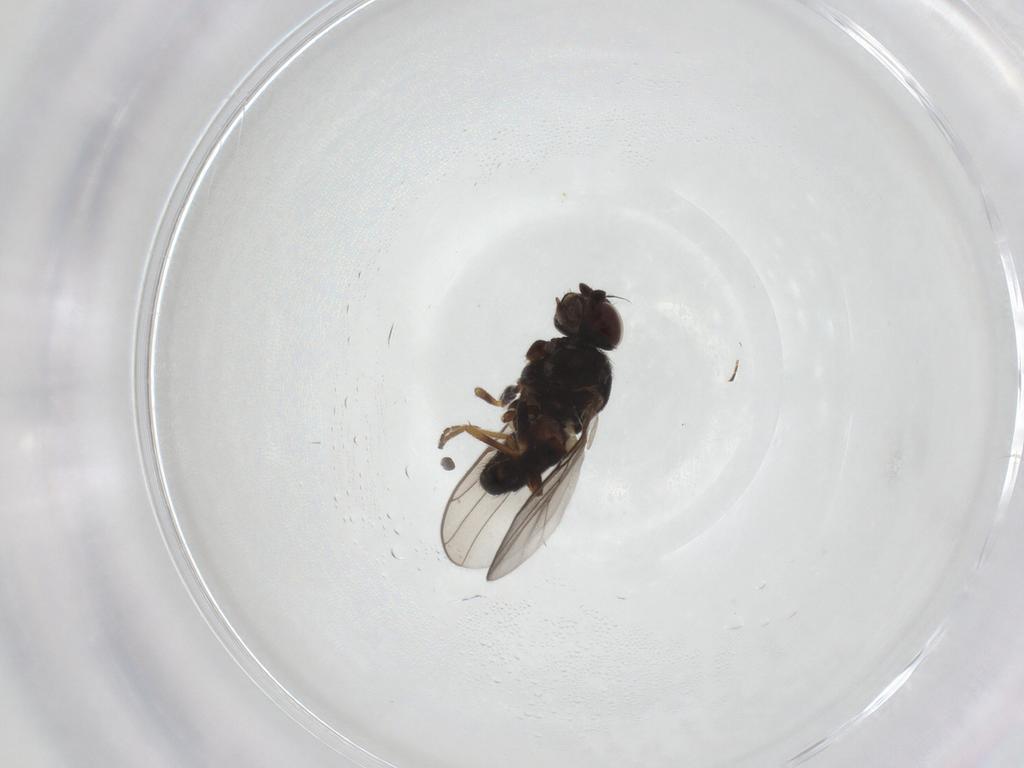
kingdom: Animalia
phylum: Arthropoda
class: Insecta
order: Diptera
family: Chloropidae
